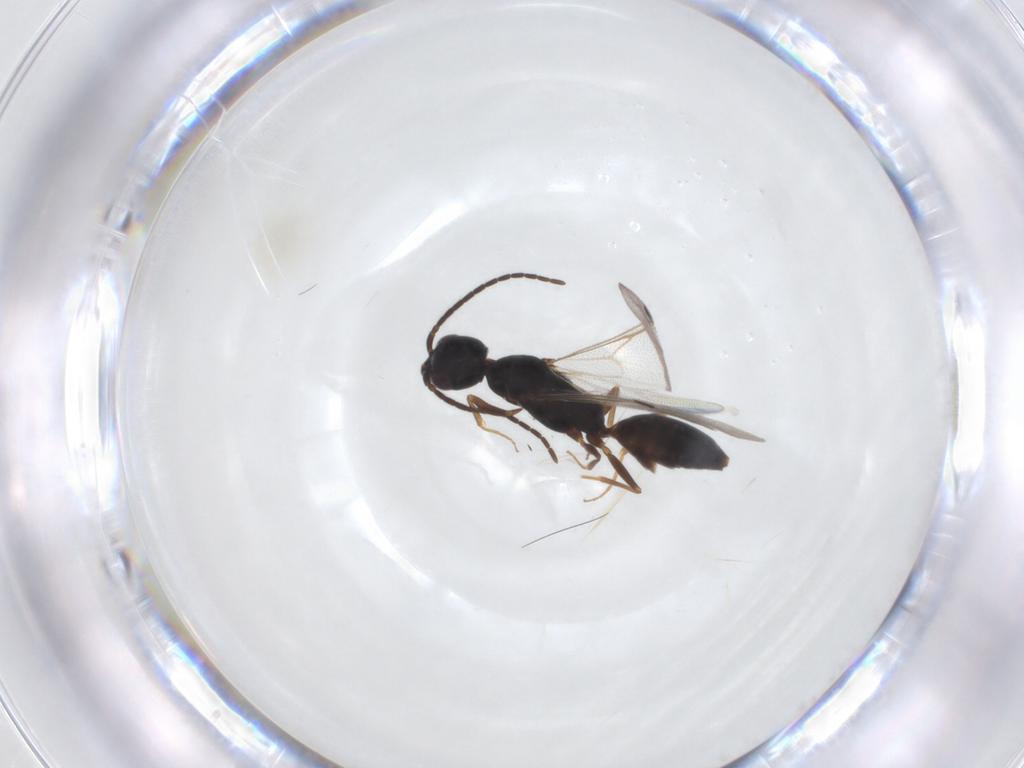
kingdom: Animalia
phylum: Arthropoda
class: Insecta
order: Hymenoptera
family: Bethylidae
